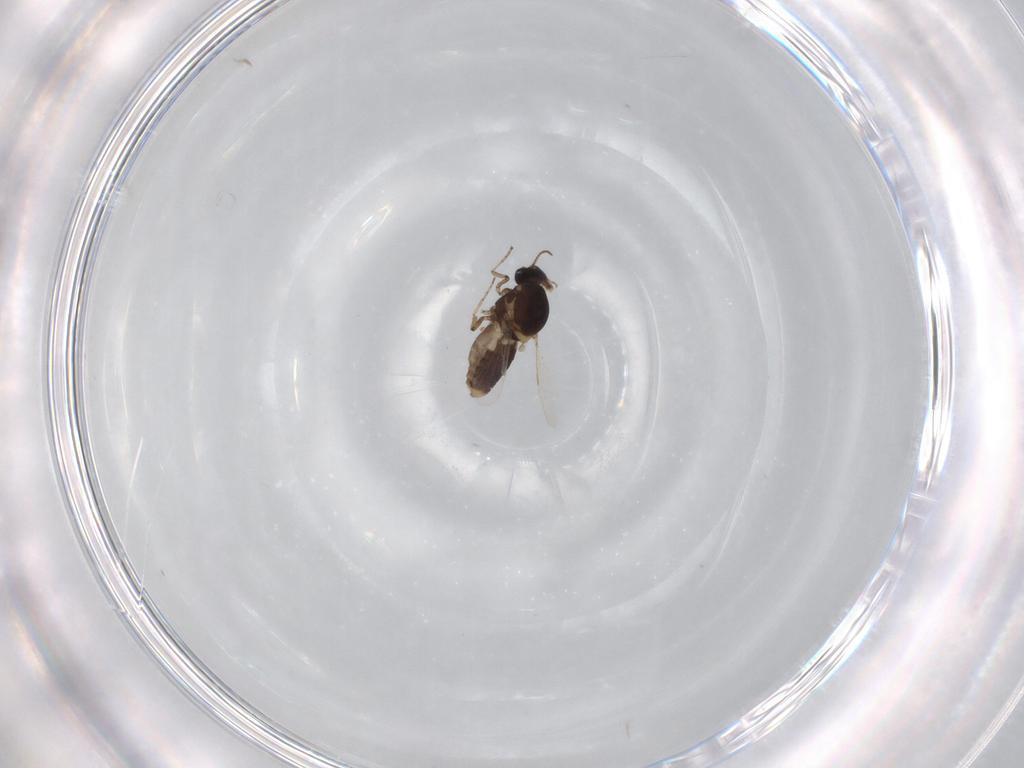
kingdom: Animalia
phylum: Arthropoda
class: Insecta
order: Diptera
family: Ceratopogonidae
